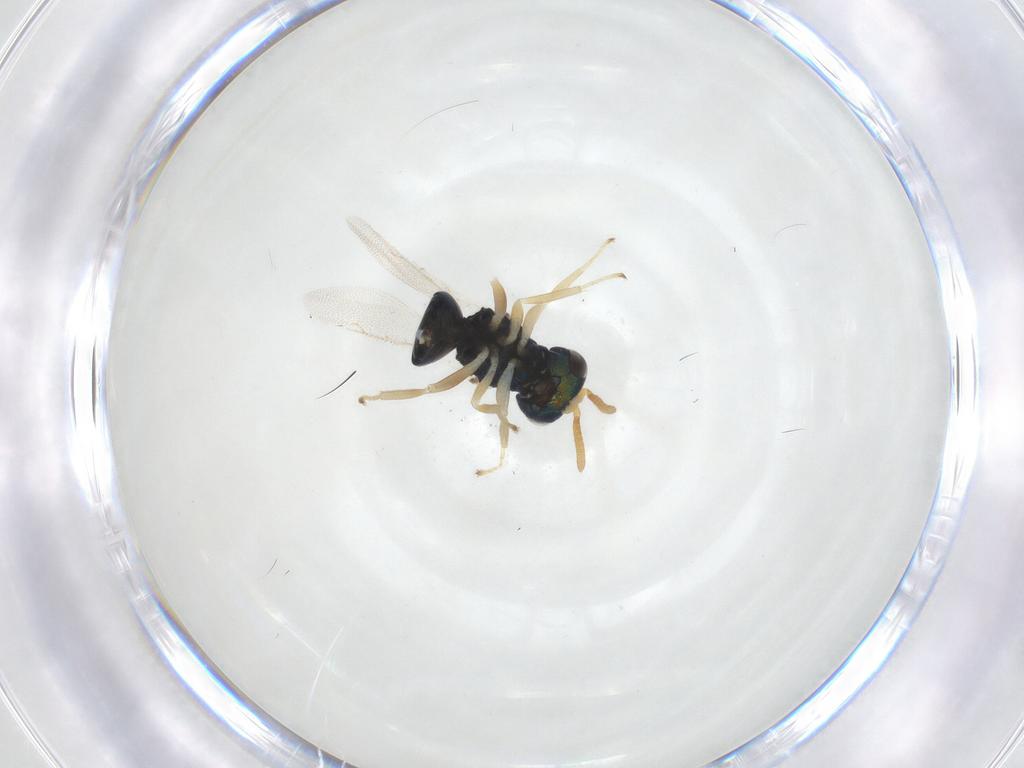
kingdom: Animalia
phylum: Arthropoda
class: Insecta
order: Hymenoptera
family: Pteromalidae
